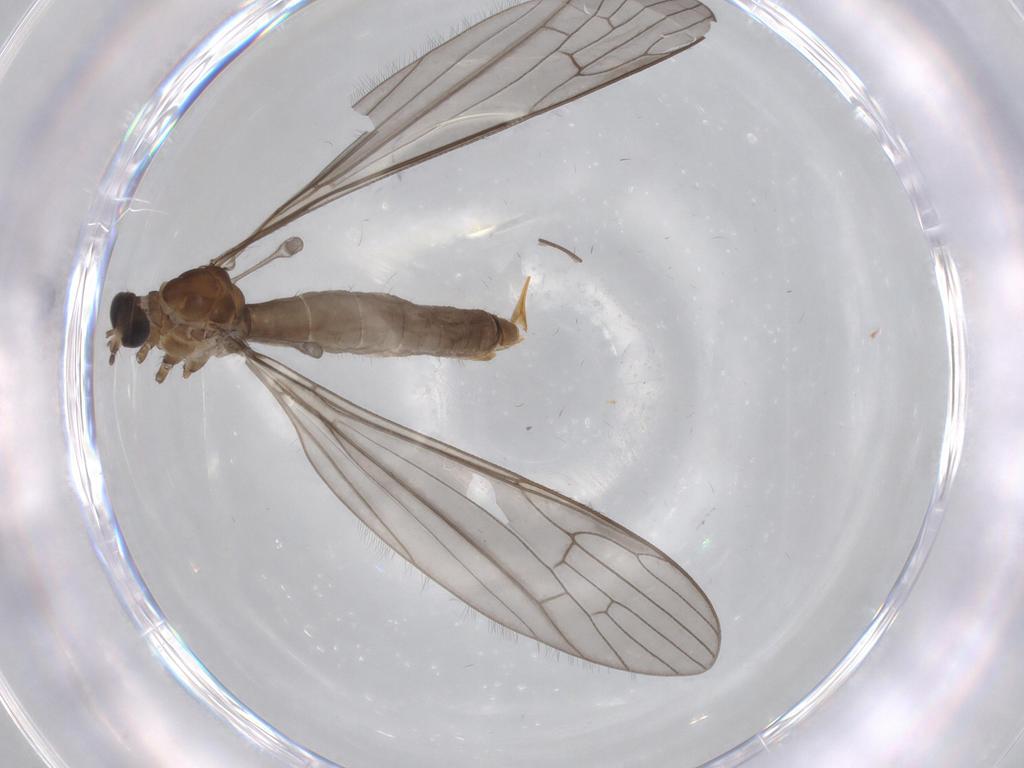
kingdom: Animalia
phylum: Arthropoda
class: Insecta
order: Diptera
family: Limoniidae
